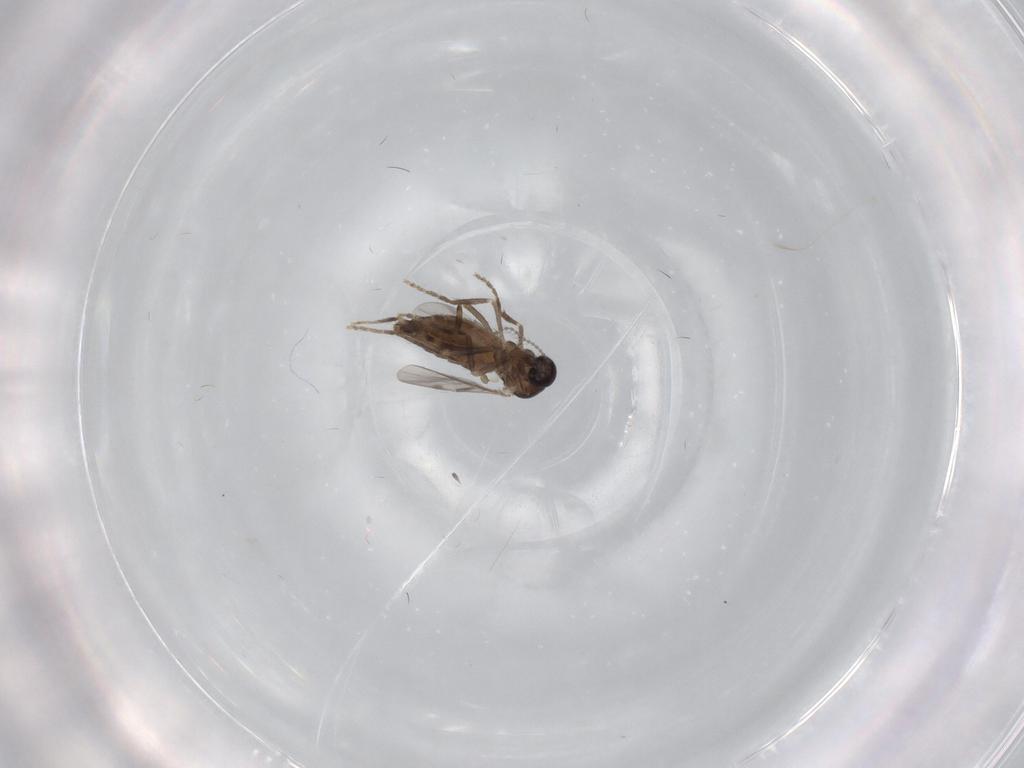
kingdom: Animalia
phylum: Arthropoda
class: Insecta
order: Diptera
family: Ceratopogonidae
